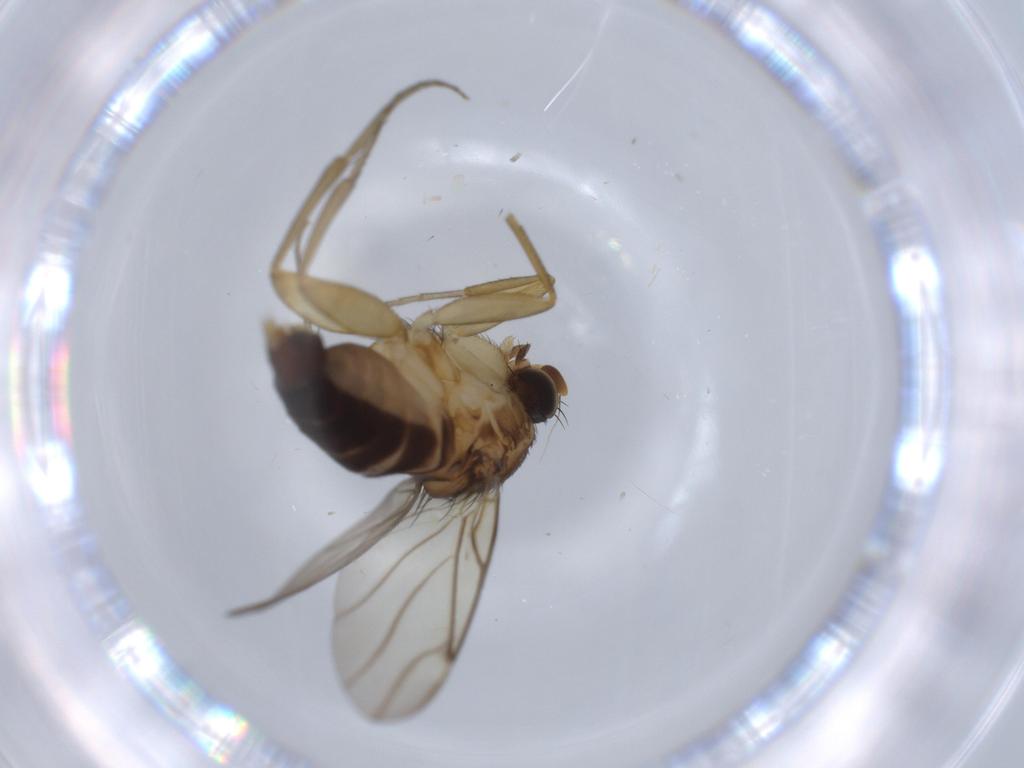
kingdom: Animalia
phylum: Arthropoda
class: Insecta
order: Diptera
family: Phoridae
